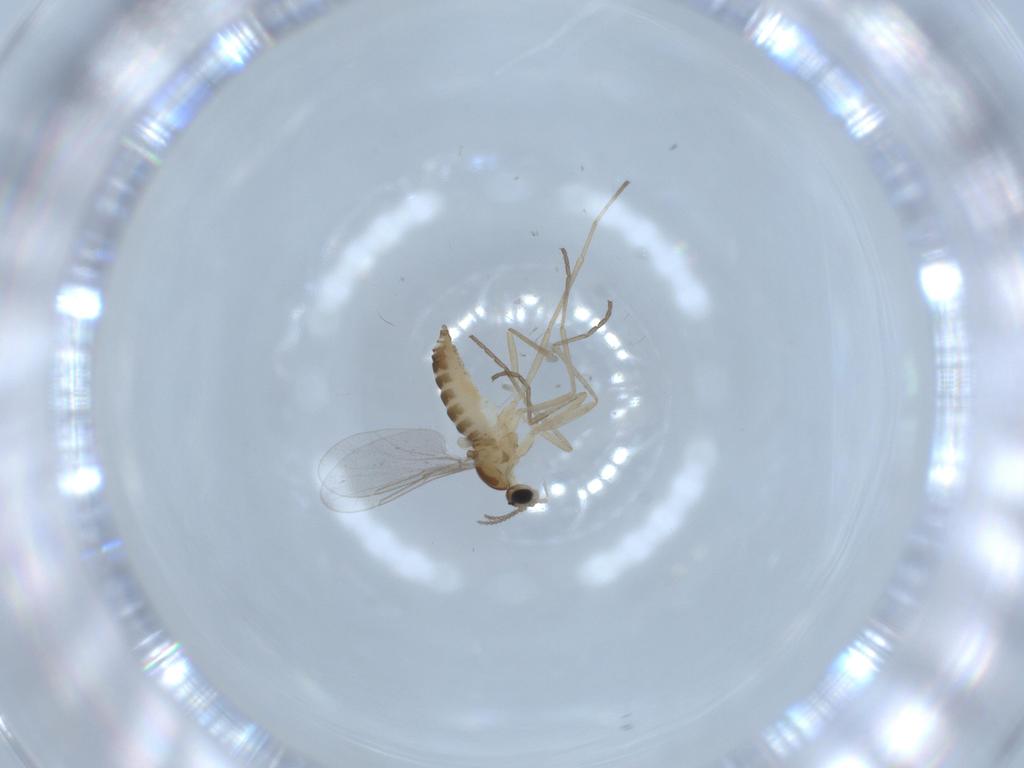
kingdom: Animalia
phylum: Arthropoda
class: Insecta
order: Diptera
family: Cecidomyiidae
